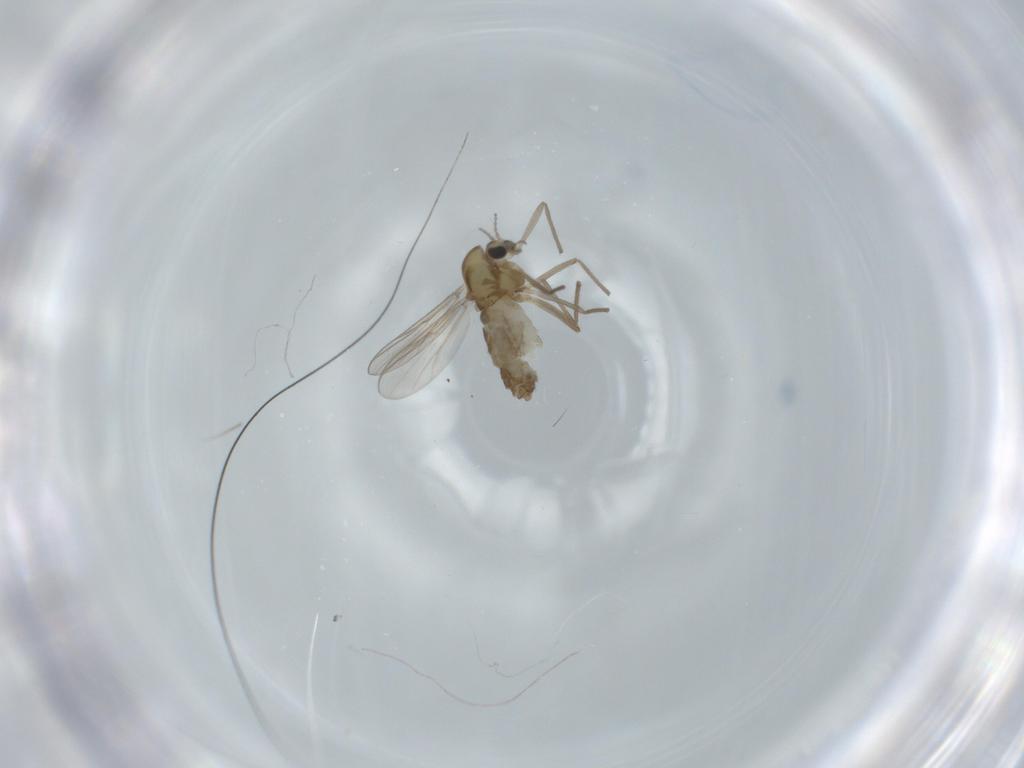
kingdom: Animalia
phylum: Arthropoda
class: Insecta
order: Diptera
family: Chironomidae
